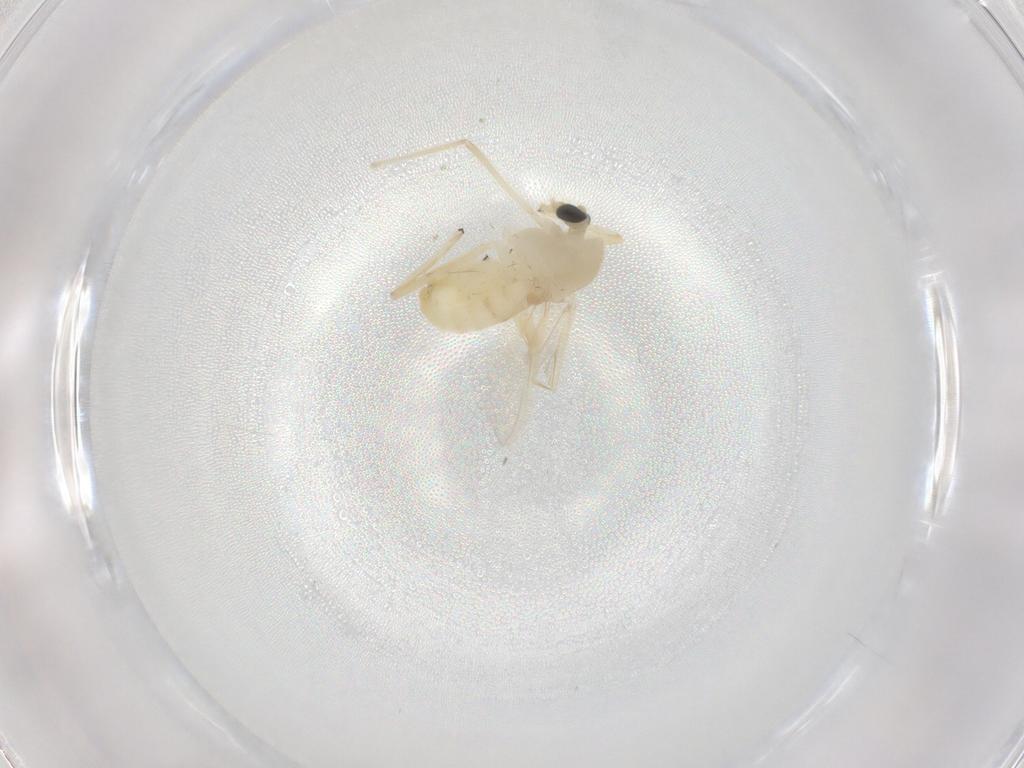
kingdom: Animalia
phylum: Arthropoda
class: Insecta
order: Diptera
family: Chironomidae
